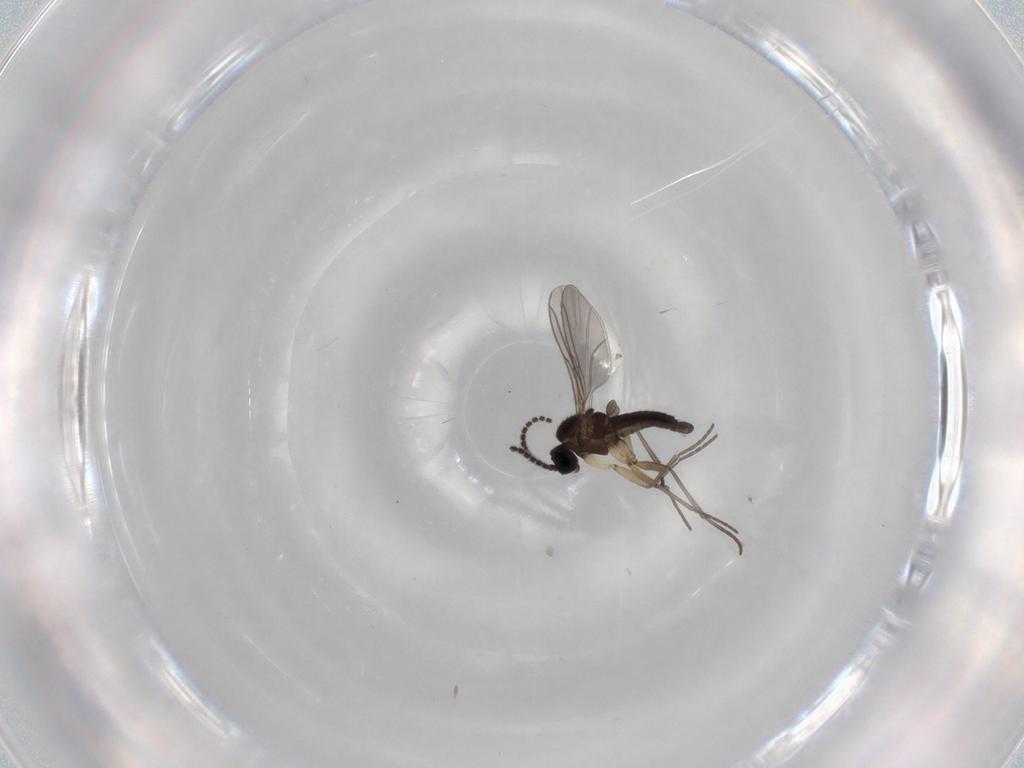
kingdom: Animalia
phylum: Arthropoda
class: Insecta
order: Diptera
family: Sciaridae
